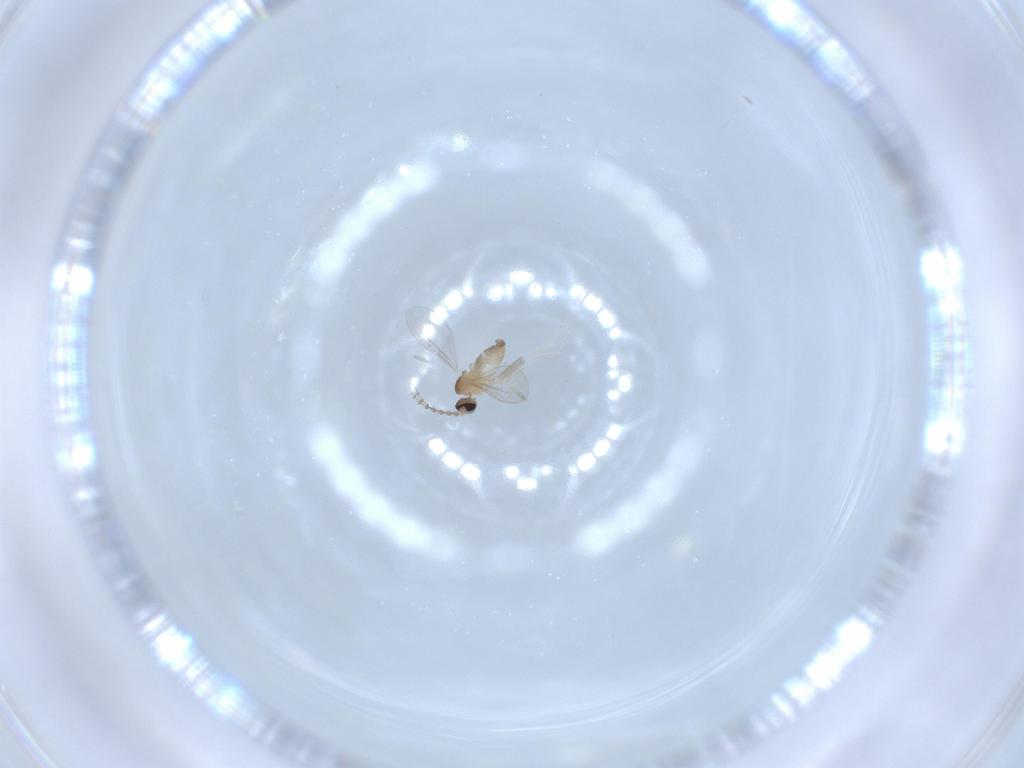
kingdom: Animalia
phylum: Arthropoda
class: Insecta
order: Diptera
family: Cecidomyiidae
